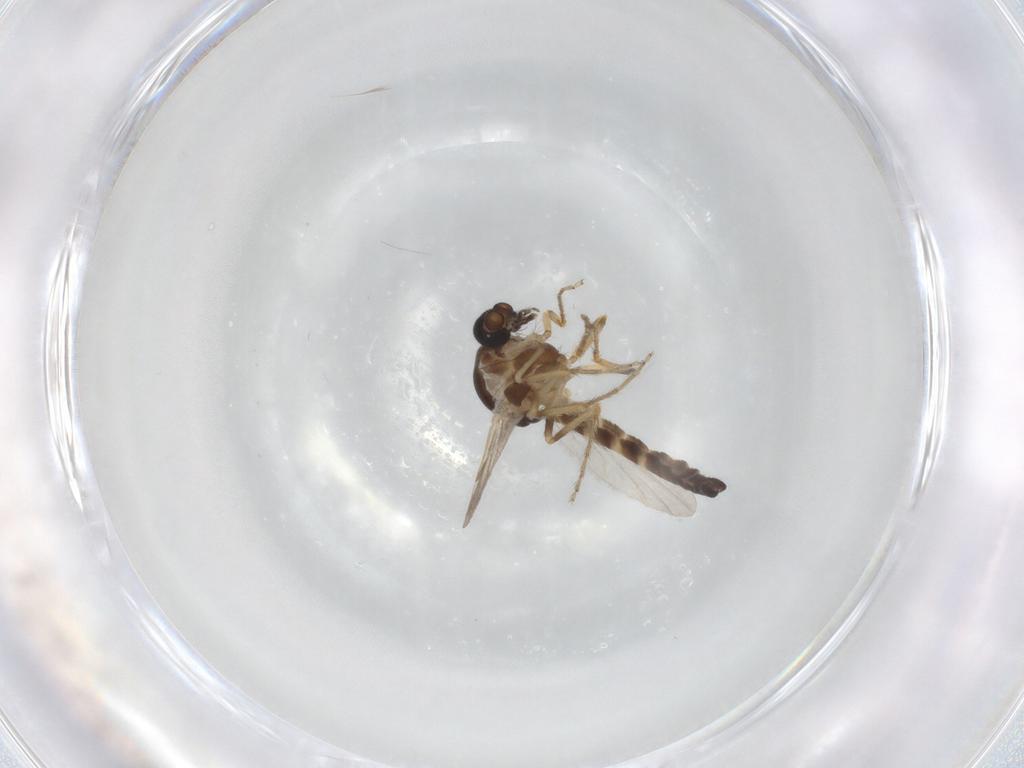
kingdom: Animalia
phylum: Arthropoda
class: Insecta
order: Diptera
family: Ceratopogonidae
